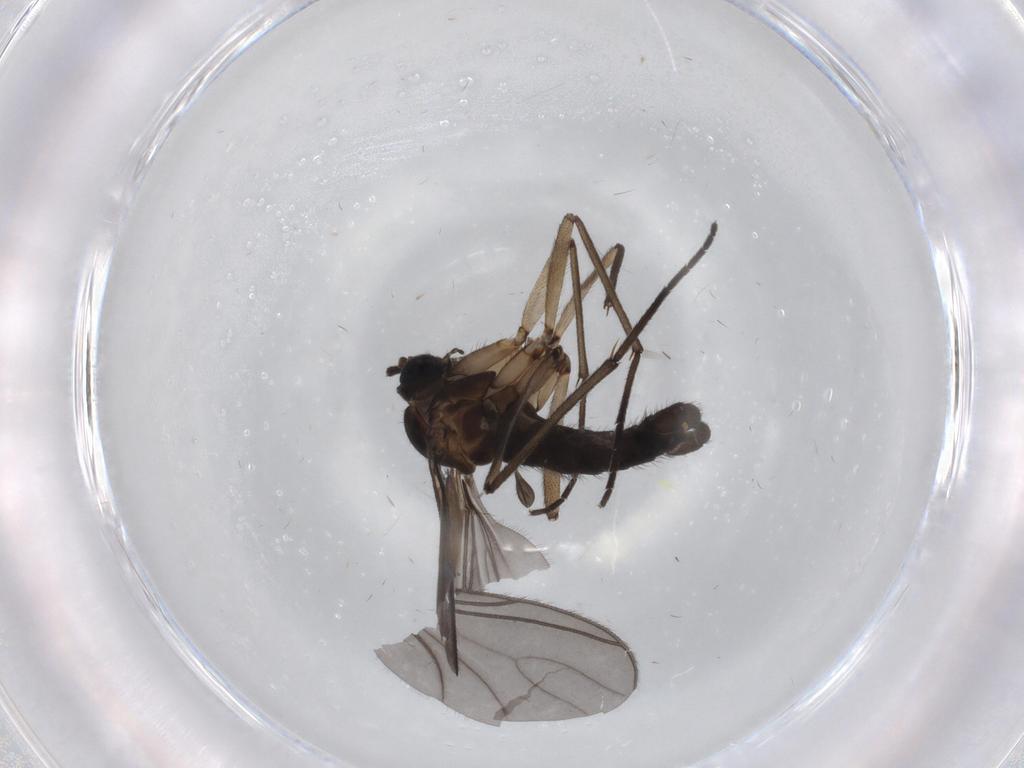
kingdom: Animalia
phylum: Arthropoda
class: Insecta
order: Diptera
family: Sciaridae
